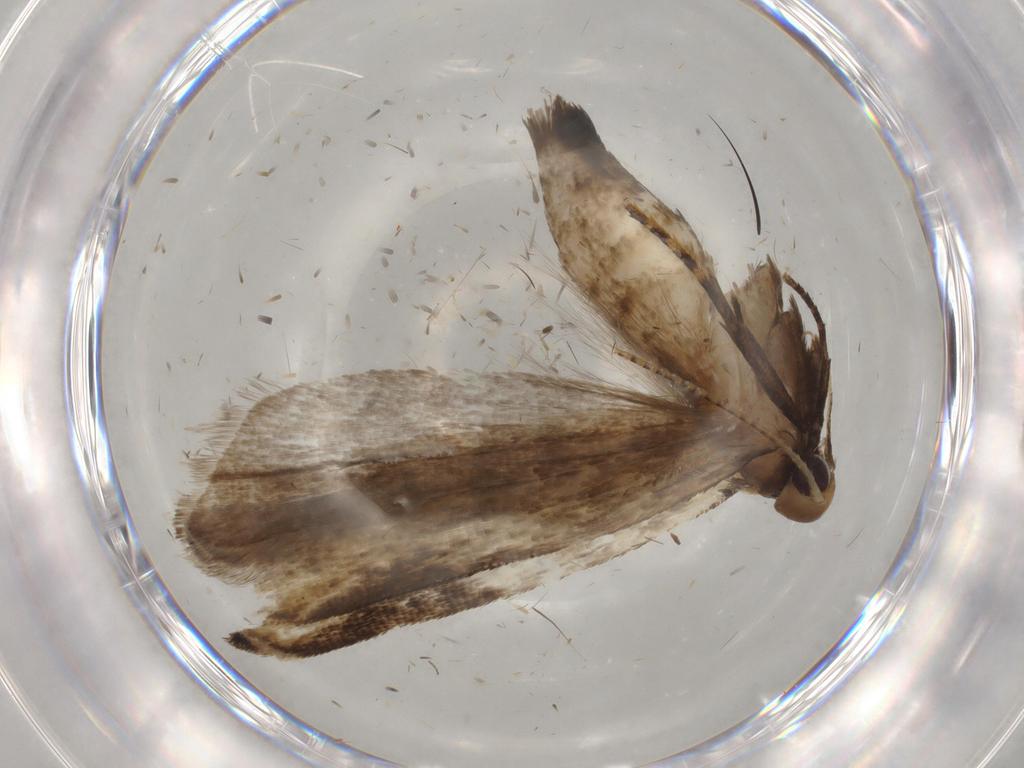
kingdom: Animalia
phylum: Arthropoda
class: Insecta
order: Lepidoptera
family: Gelechiidae
